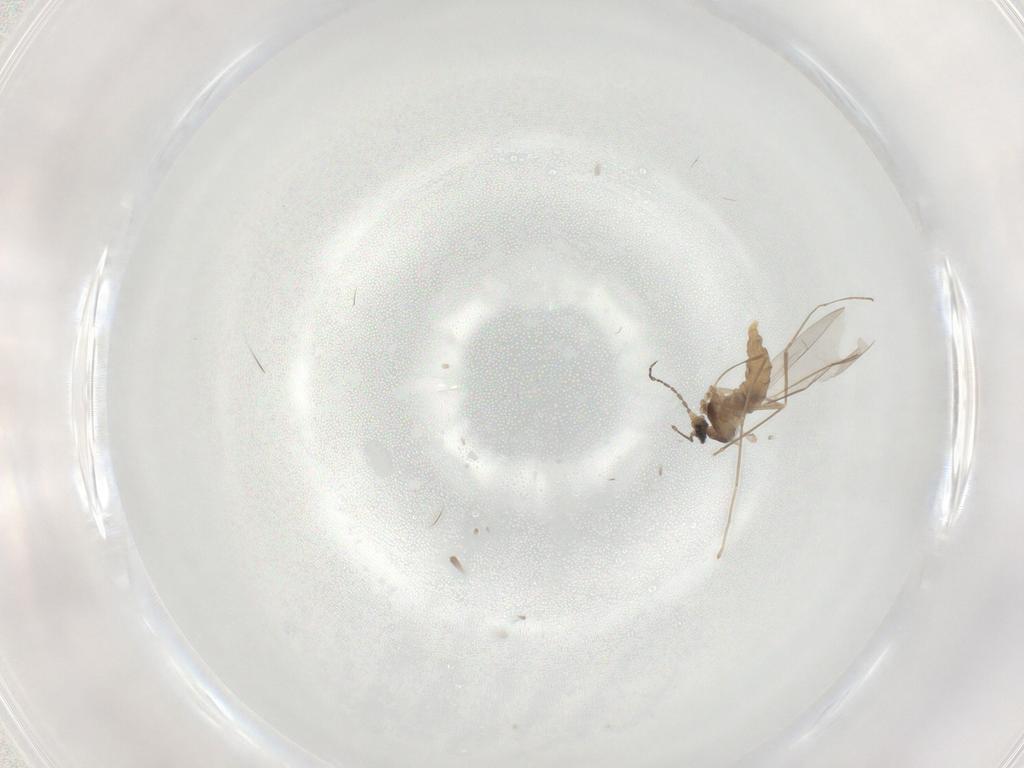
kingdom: Animalia
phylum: Arthropoda
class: Insecta
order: Diptera
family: Cecidomyiidae
